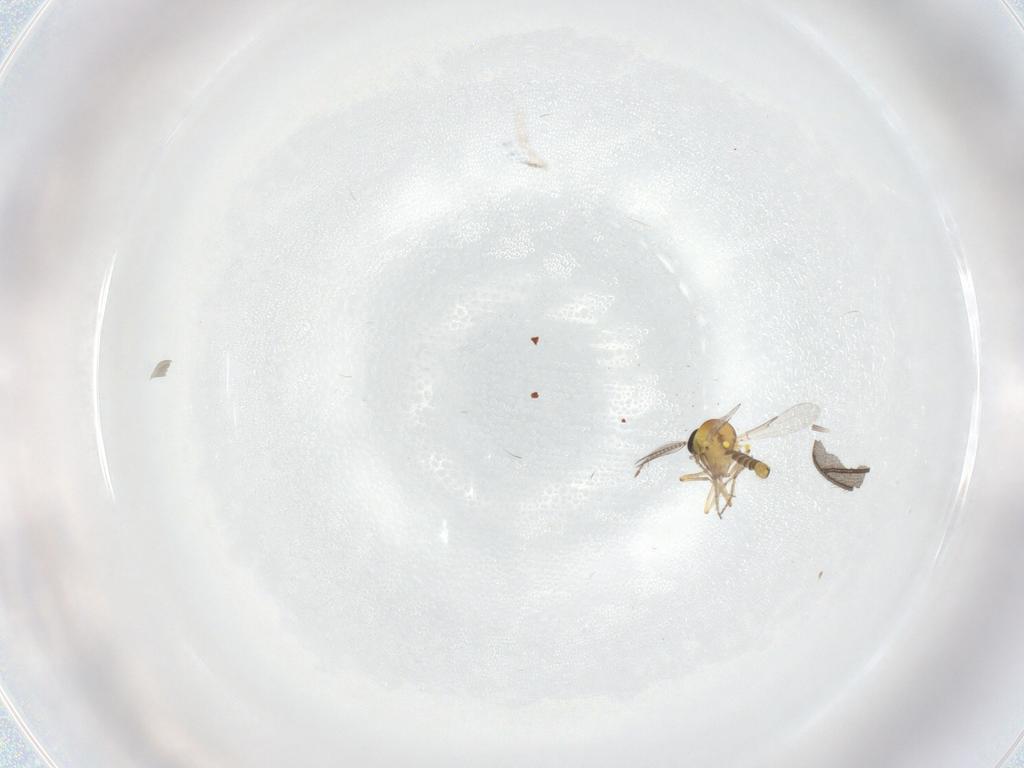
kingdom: Animalia
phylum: Arthropoda
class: Insecta
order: Diptera
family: Chironomidae
